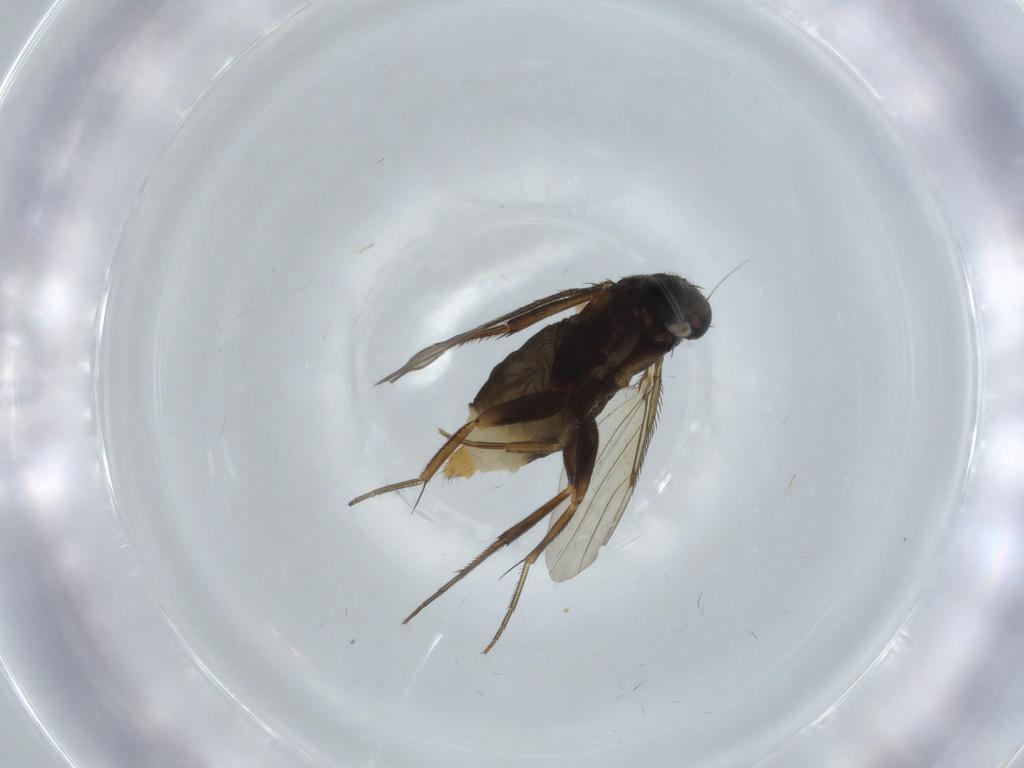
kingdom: Animalia
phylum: Arthropoda
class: Insecta
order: Diptera
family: Phoridae
